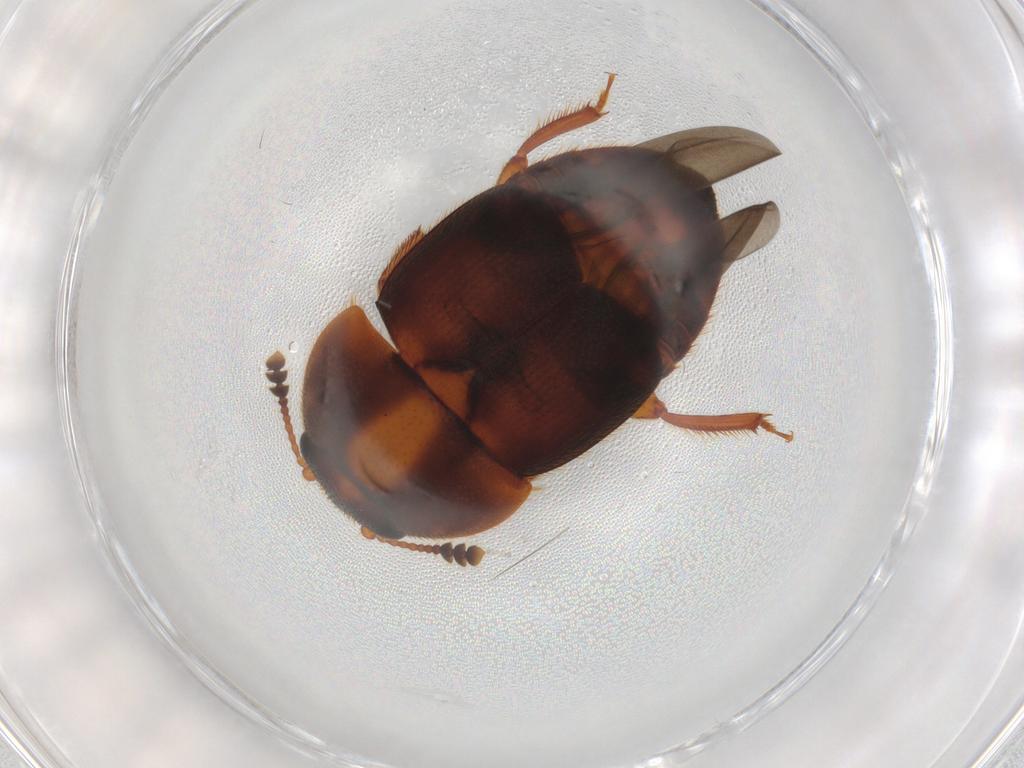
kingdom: Animalia
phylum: Arthropoda
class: Insecta
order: Coleoptera
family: Nitidulidae
